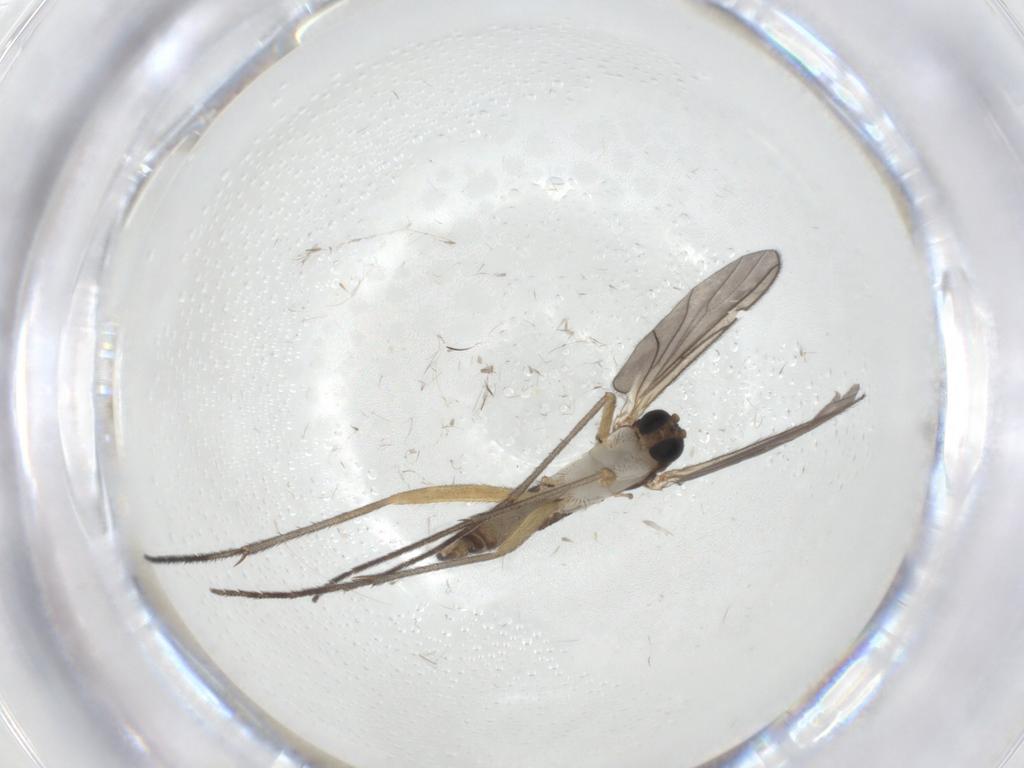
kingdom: Animalia
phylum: Arthropoda
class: Insecta
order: Diptera
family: Sciaridae
